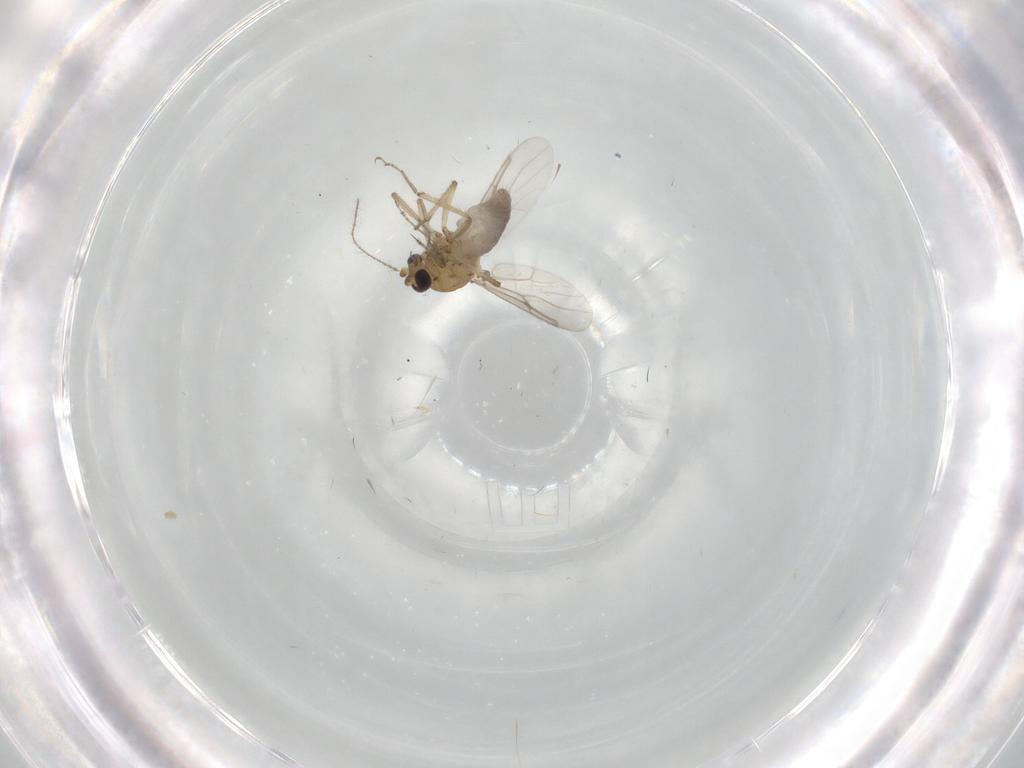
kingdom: Animalia
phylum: Arthropoda
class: Insecta
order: Diptera
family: Ceratopogonidae
